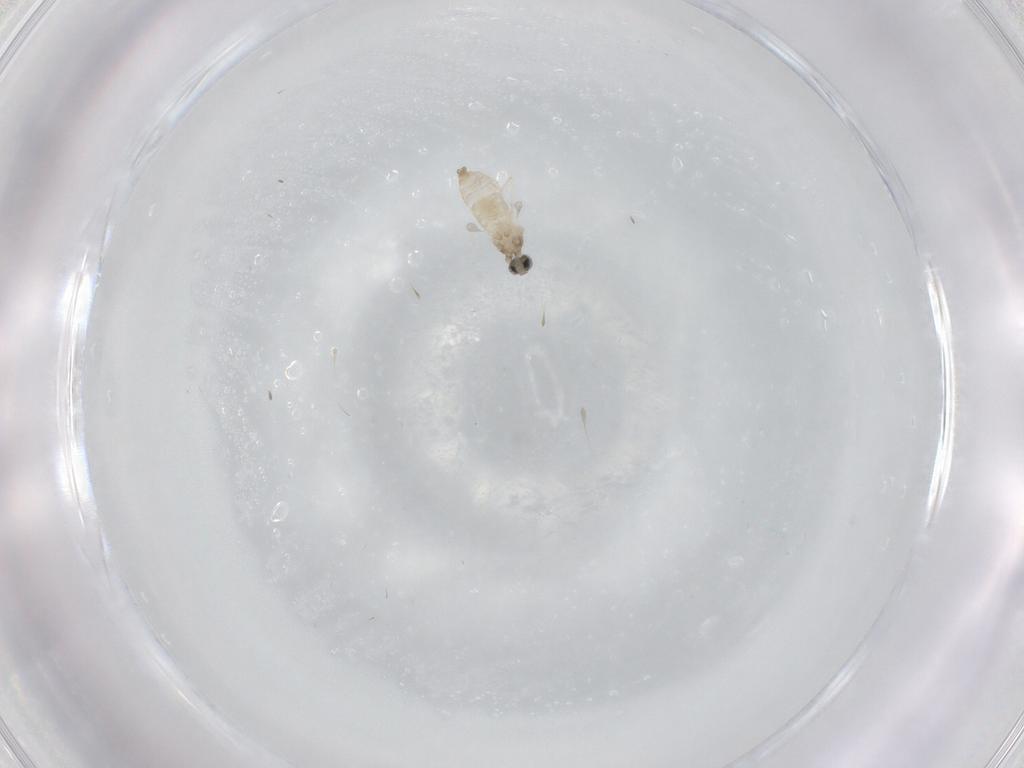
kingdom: Animalia
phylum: Arthropoda
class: Insecta
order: Diptera
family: Cecidomyiidae
